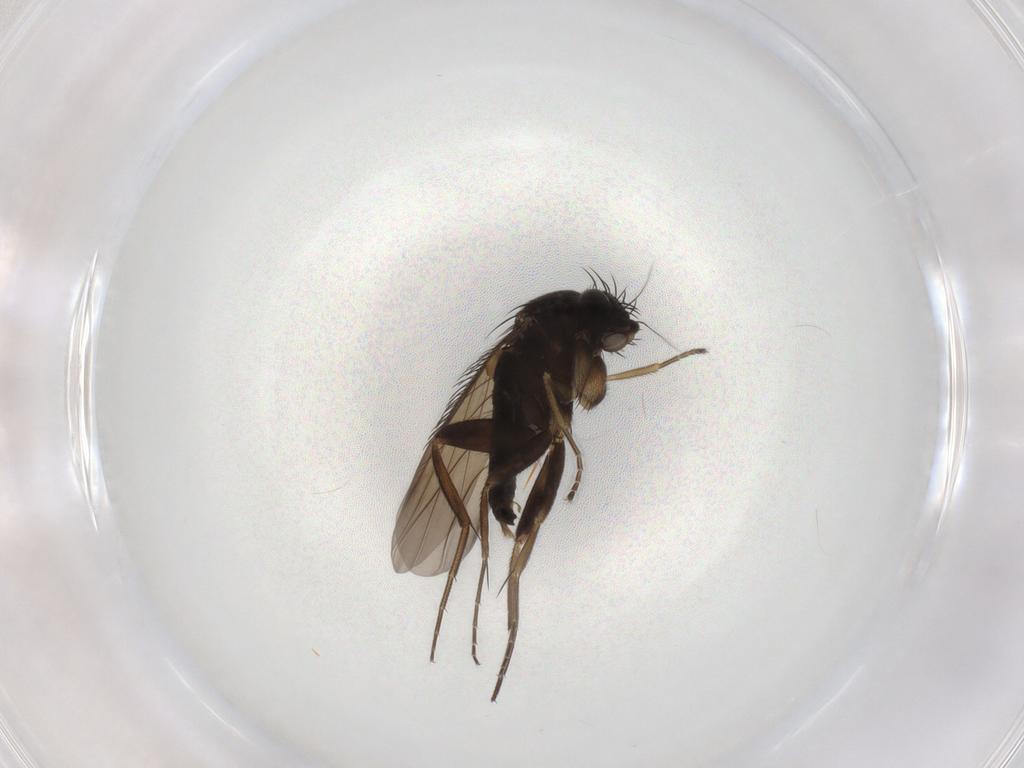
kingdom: Animalia
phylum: Arthropoda
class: Insecta
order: Diptera
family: Phoridae
